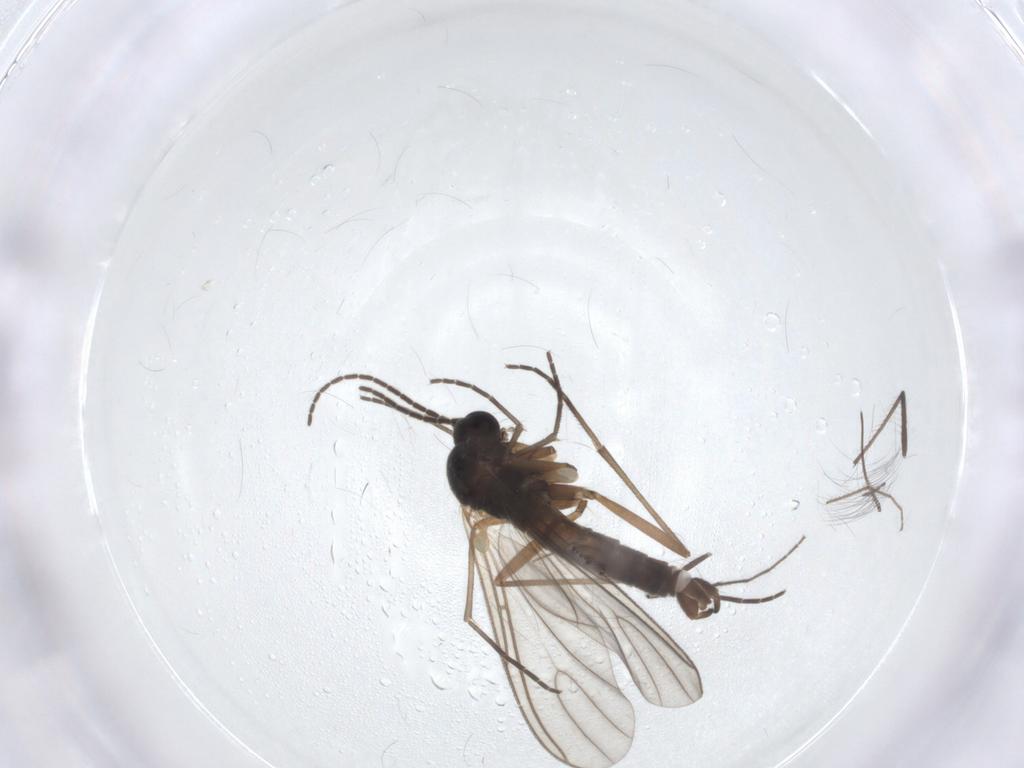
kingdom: Animalia
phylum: Arthropoda
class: Insecta
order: Diptera
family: Sciaridae
